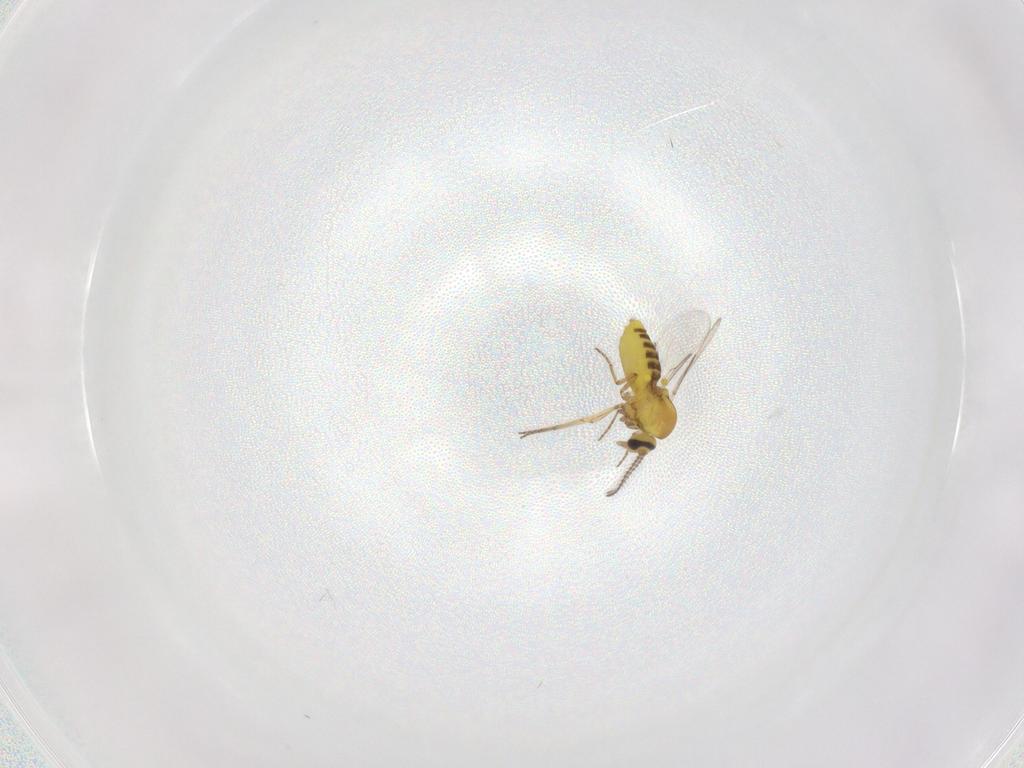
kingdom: Animalia
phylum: Arthropoda
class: Insecta
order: Diptera
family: Ceratopogonidae
